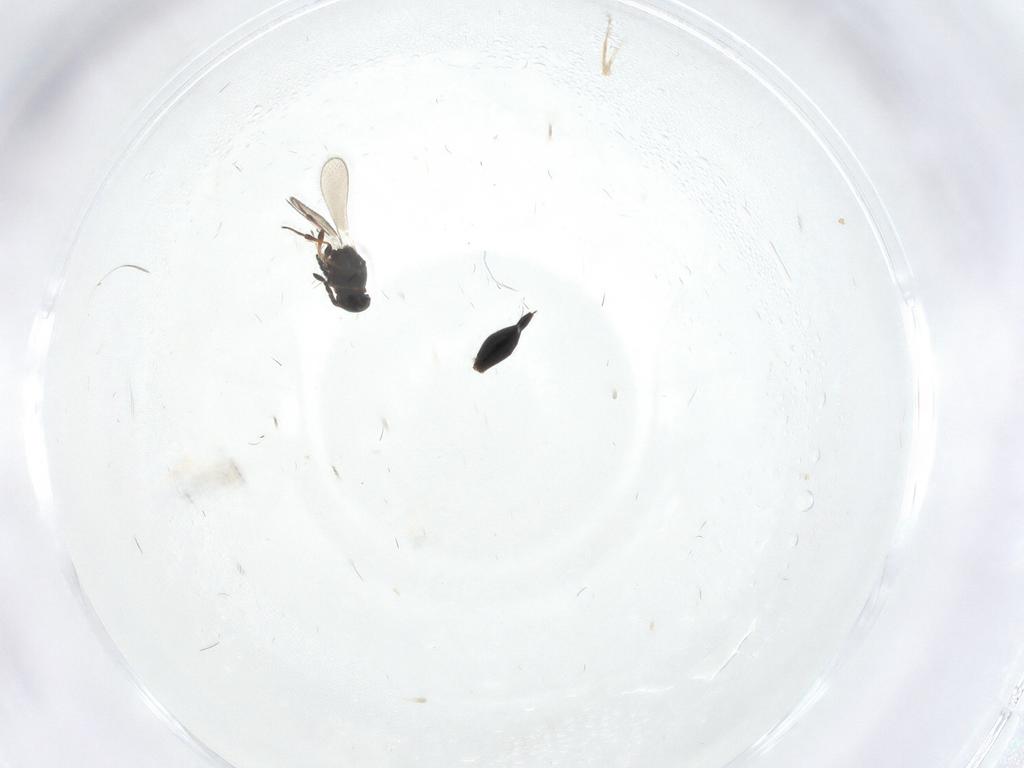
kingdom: Animalia
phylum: Arthropoda
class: Insecta
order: Hymenoptera
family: Platygastridae
